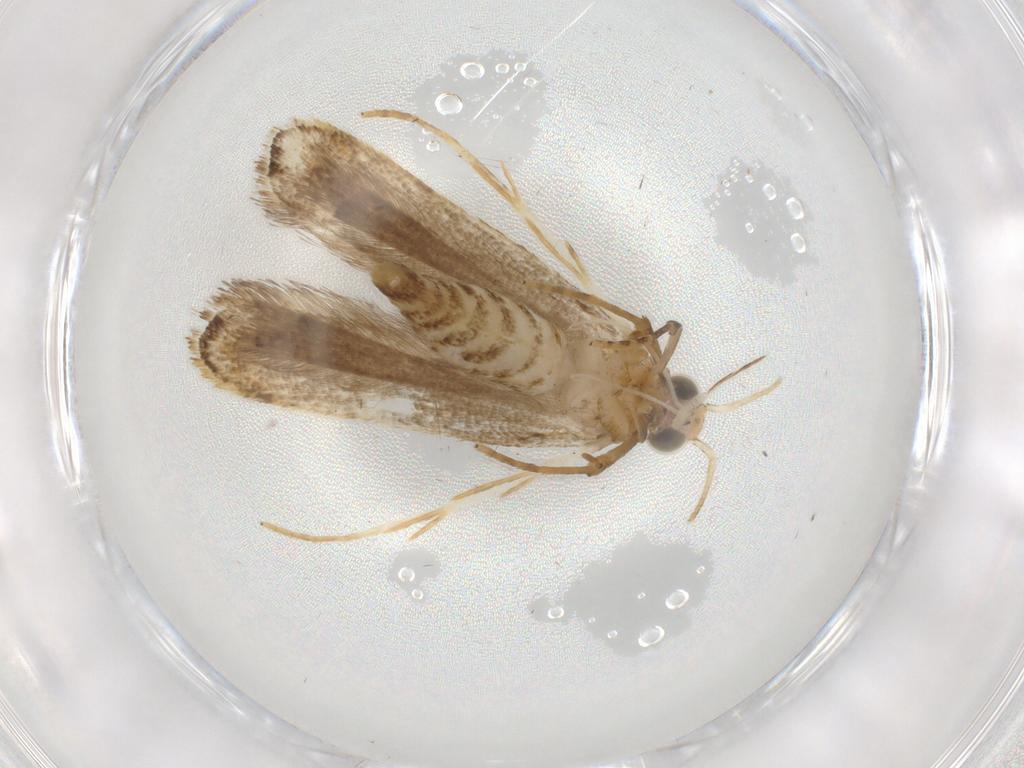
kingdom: Animalia
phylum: Arthropoda
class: Insecta
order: Lepidoptera
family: Gelechiidae
